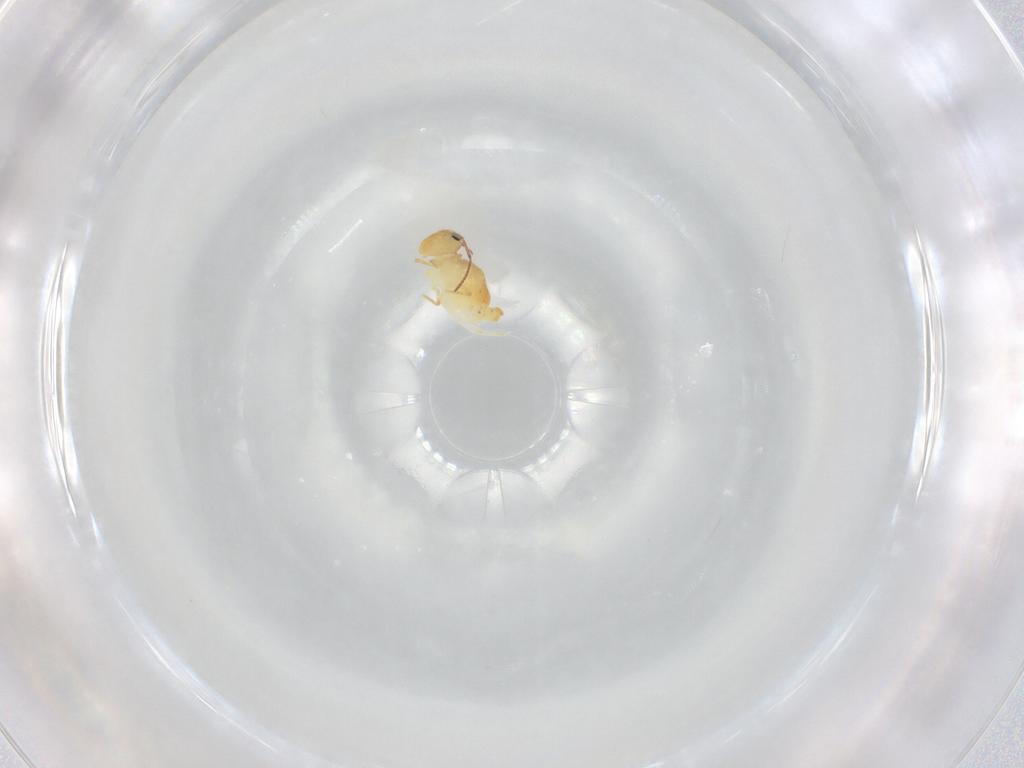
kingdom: Animalia
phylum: Arthropoda
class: Collembola
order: Symphypleona
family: Bourletiellidae
